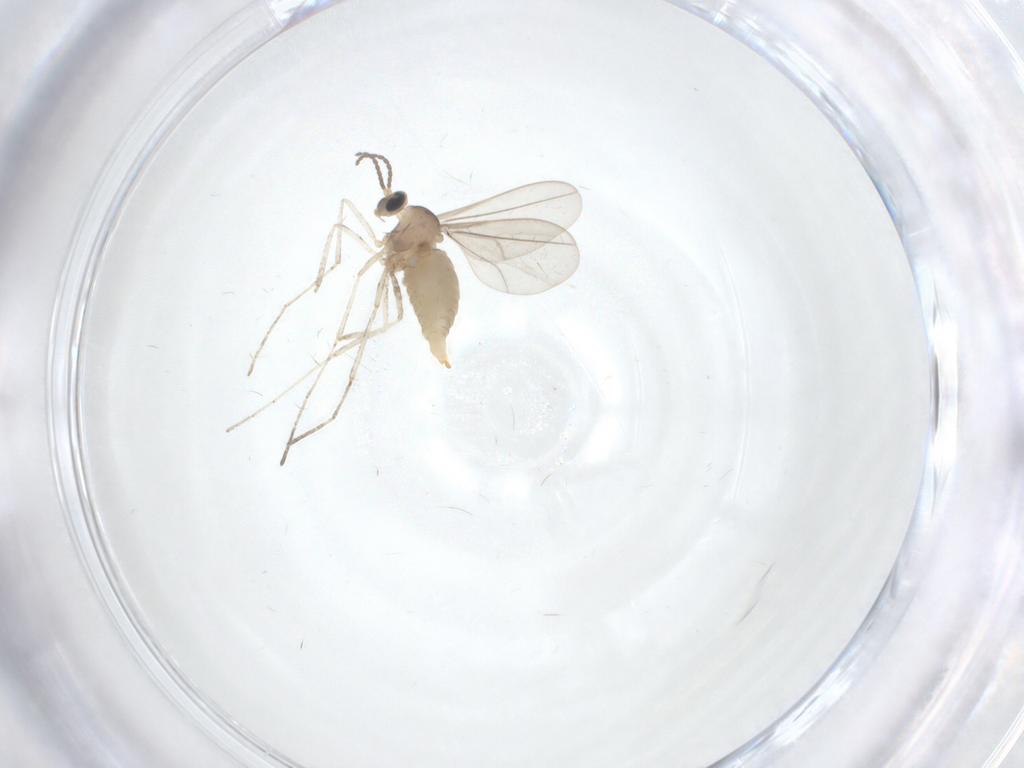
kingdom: Animalia
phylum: Arthropoda
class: Insecta
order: Diptera
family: Cecidomyiidae
